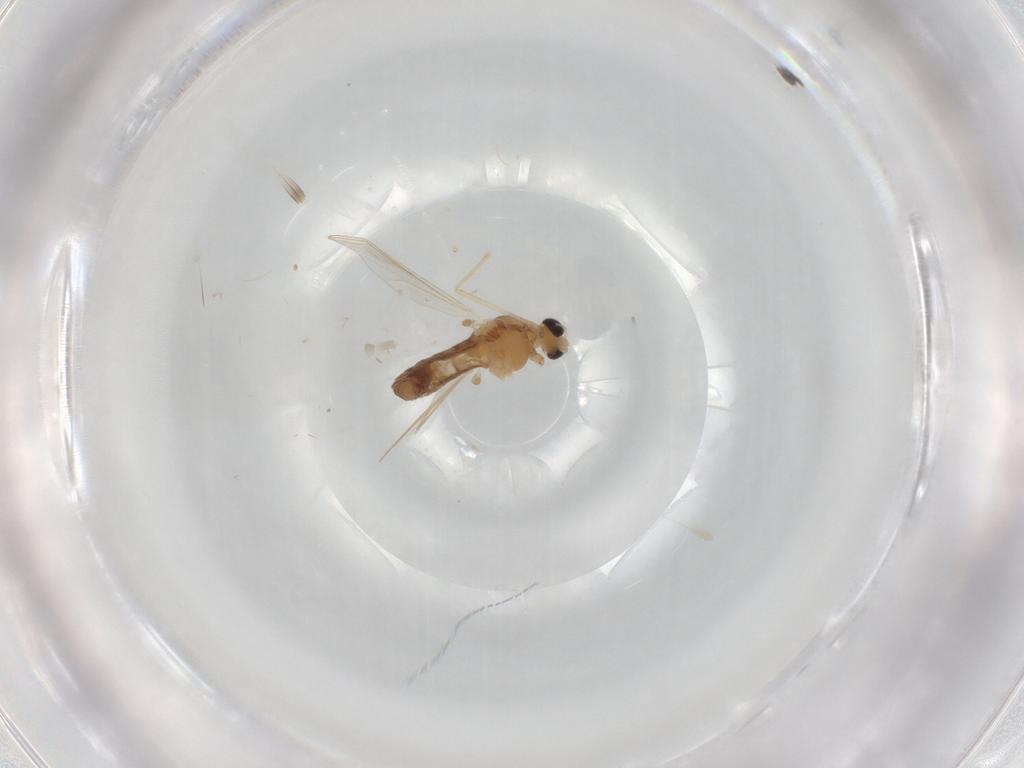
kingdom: Animalia
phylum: Arthropoda
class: Insecta
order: Diptera
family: Chironomidae
